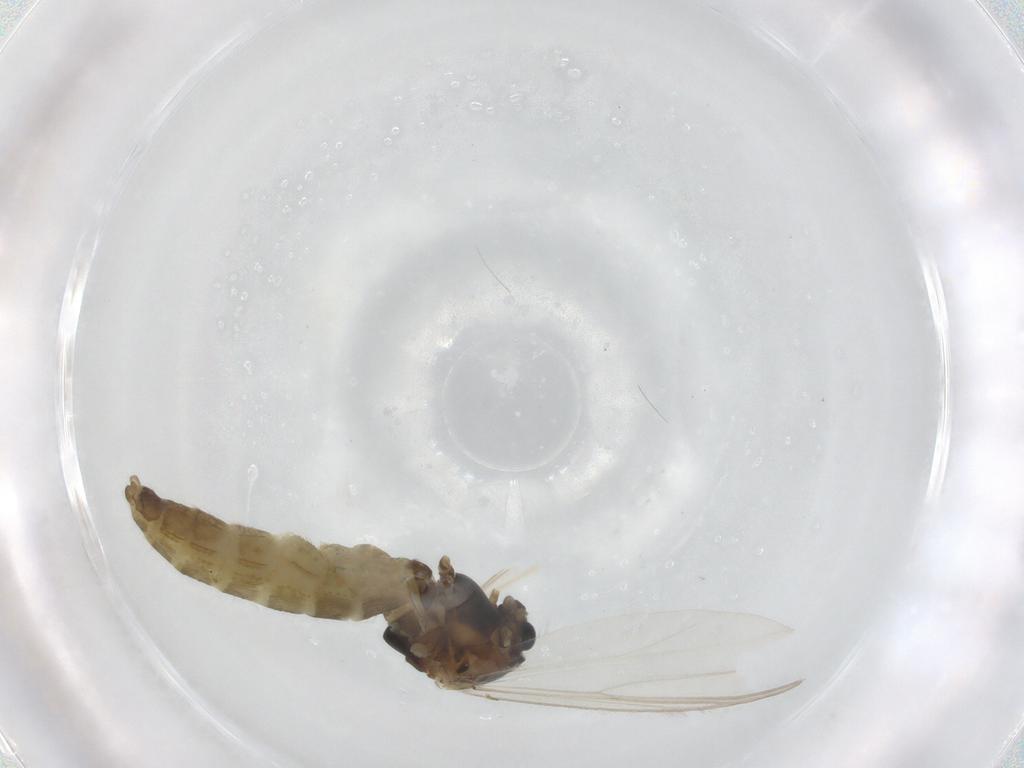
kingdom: Animalia
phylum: Arthropoda
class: Insecta
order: Diptera
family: Chironomidae
